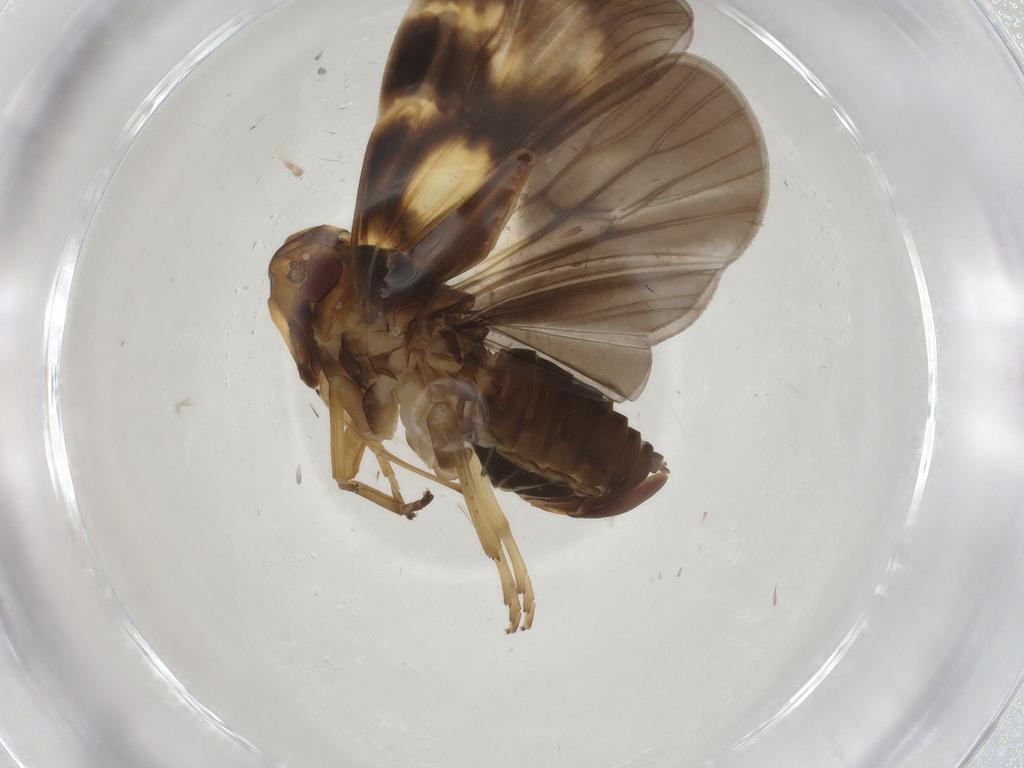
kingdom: Animalia
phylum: Arthropoda
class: Insecta
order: Hemiptera
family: Cixiidae
